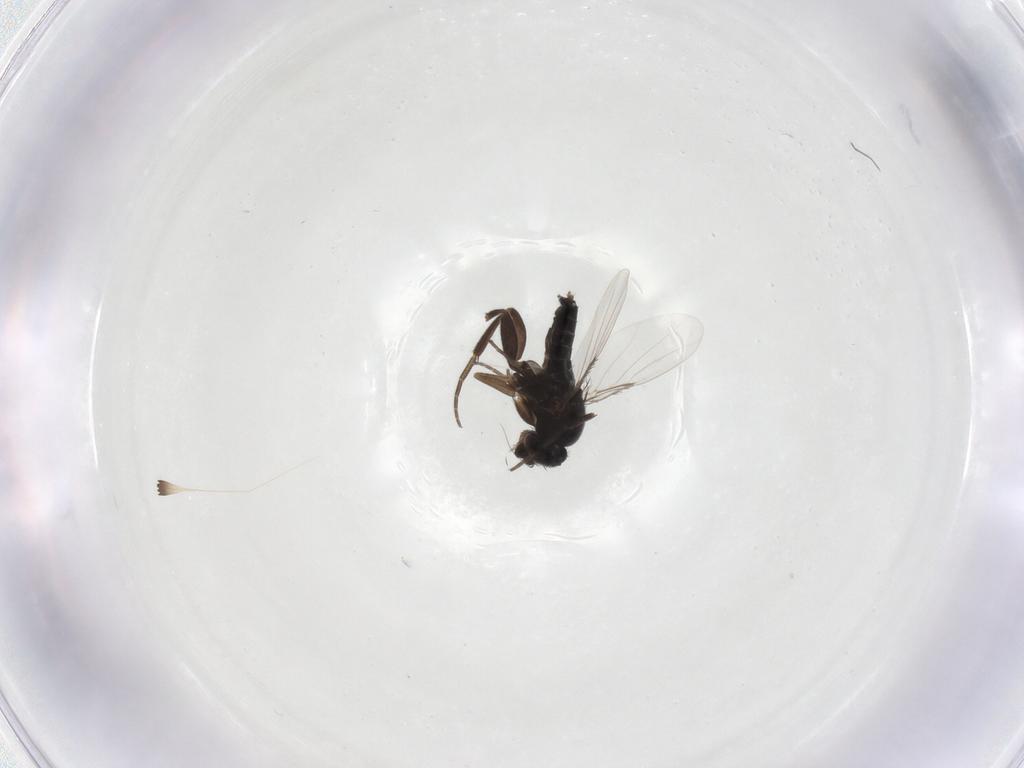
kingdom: Animalia
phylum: Arthropoda
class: Insecta
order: Diptera
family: Phoridae
